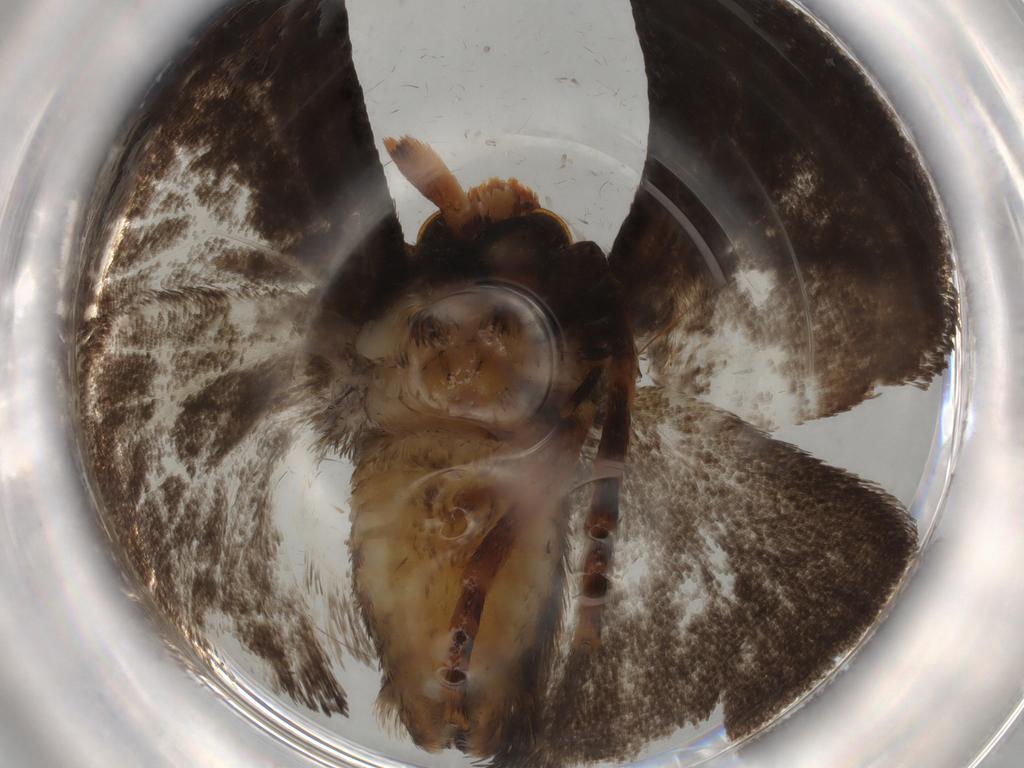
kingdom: Animalia
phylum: Arthropoda
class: Insecta
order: Lepidoptera
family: Limacodidae
